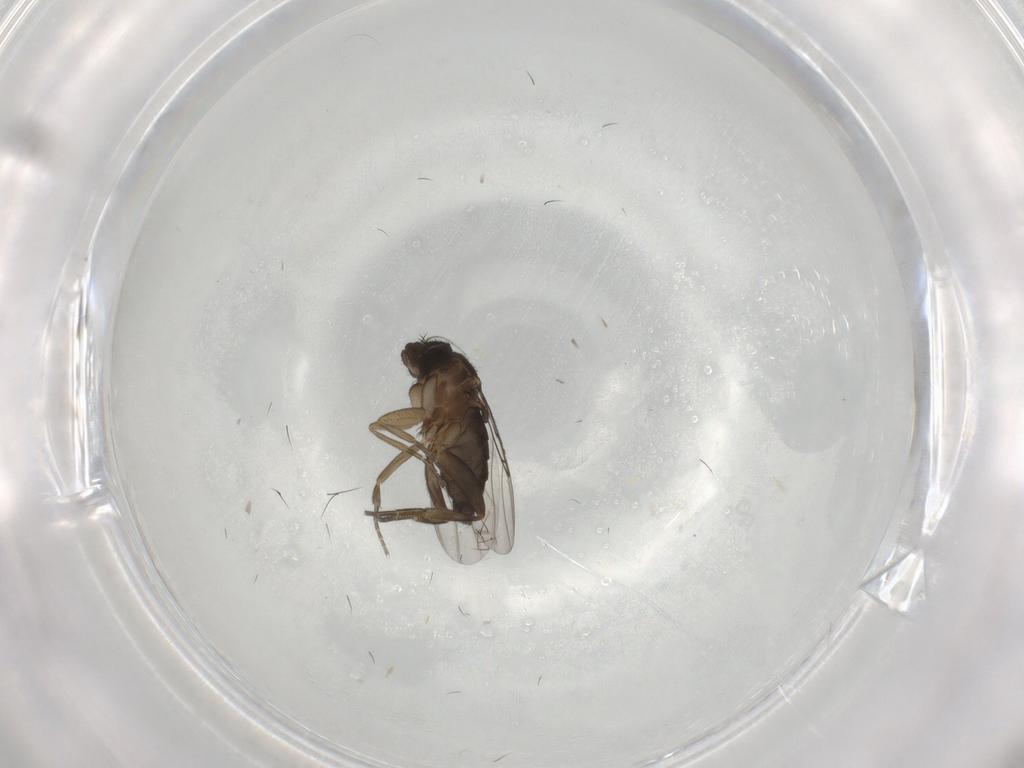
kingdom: Animalia
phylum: Arthropoda
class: Insecta
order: Diptera
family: Phoridae
